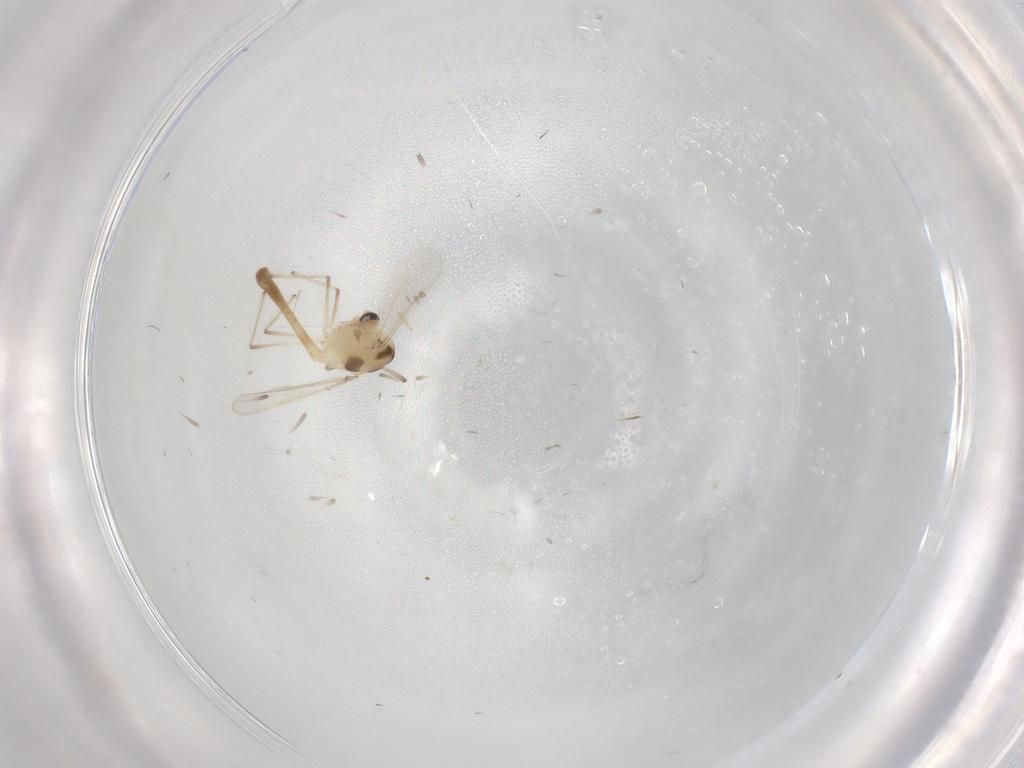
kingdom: Animalia
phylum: Arthropoda
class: Insecta
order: Diptera
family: Chironomidae
